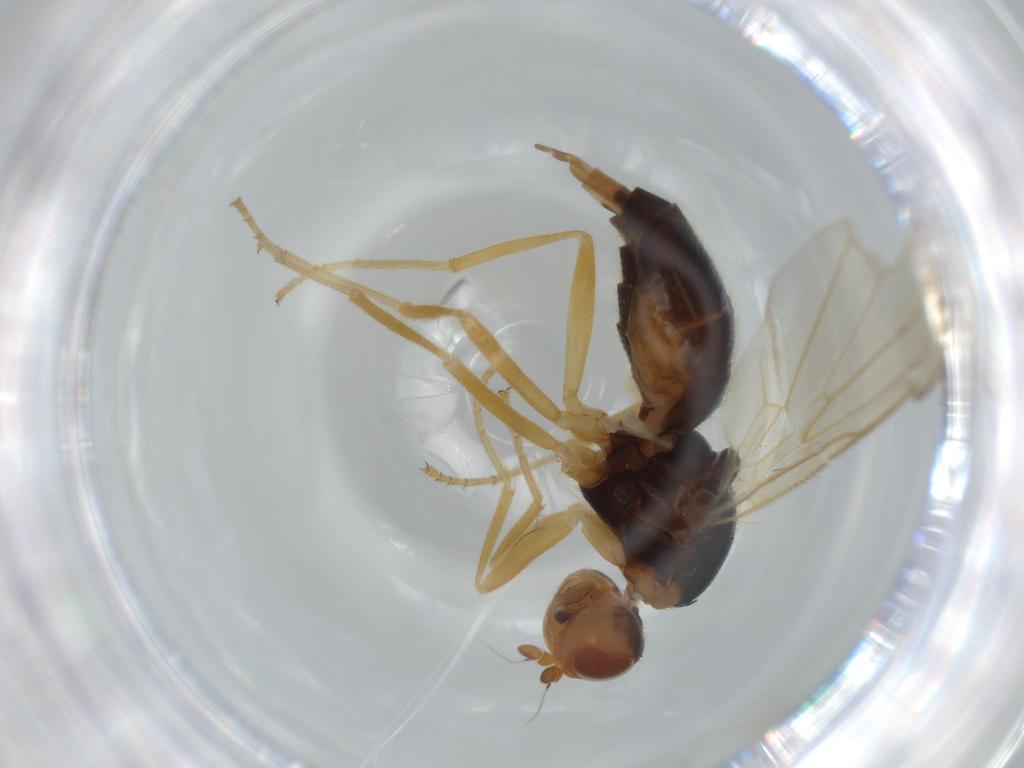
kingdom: Animalia
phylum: Arthropoda
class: Insecta
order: Diptera
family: Psilidae
